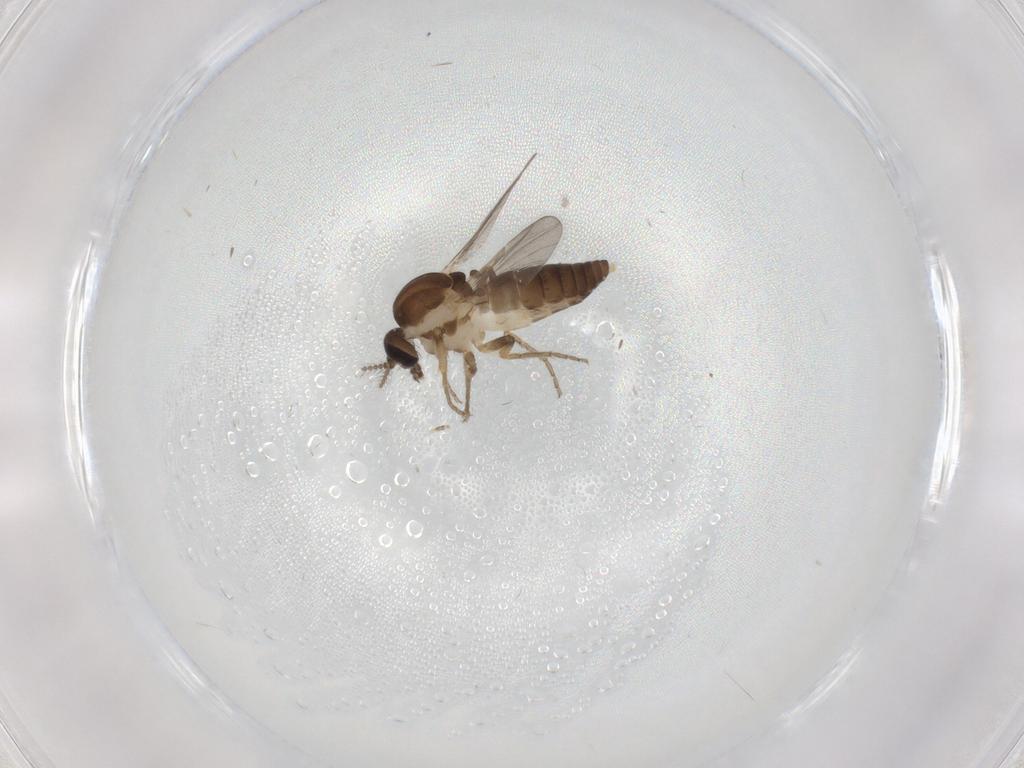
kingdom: Animalia
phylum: Arthropoda
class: Insecta
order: Diptera
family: Ceratopogonidae
